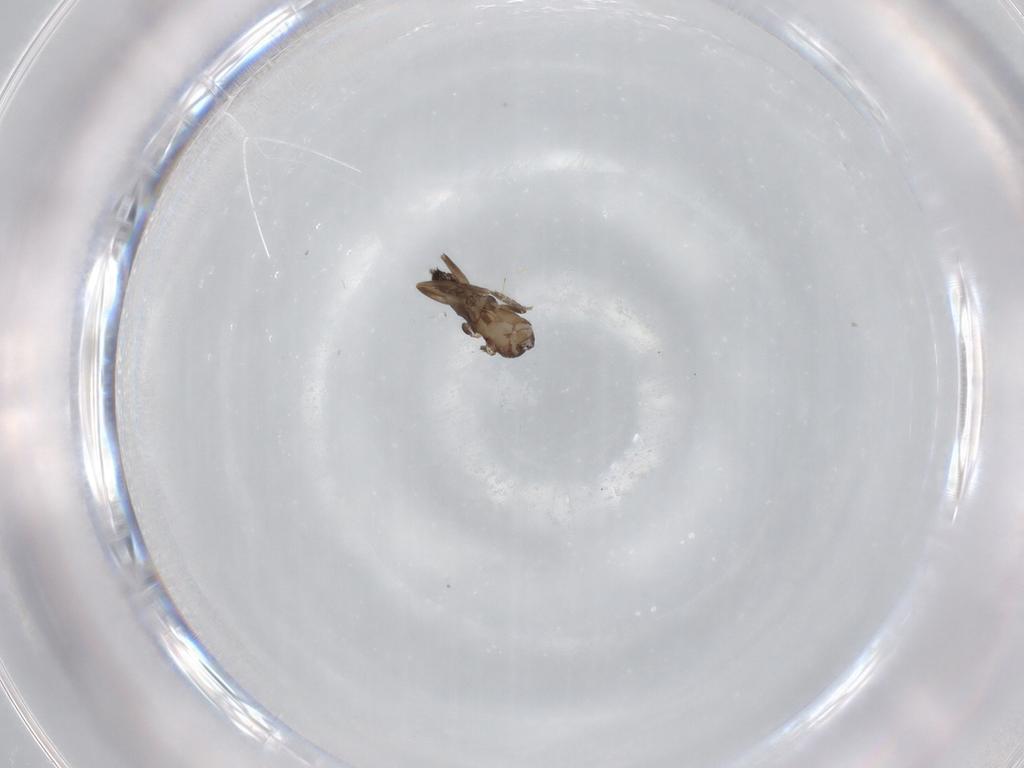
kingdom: Animalia
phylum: Arthropoda
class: Insecta
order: Diptera
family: Phoridae
